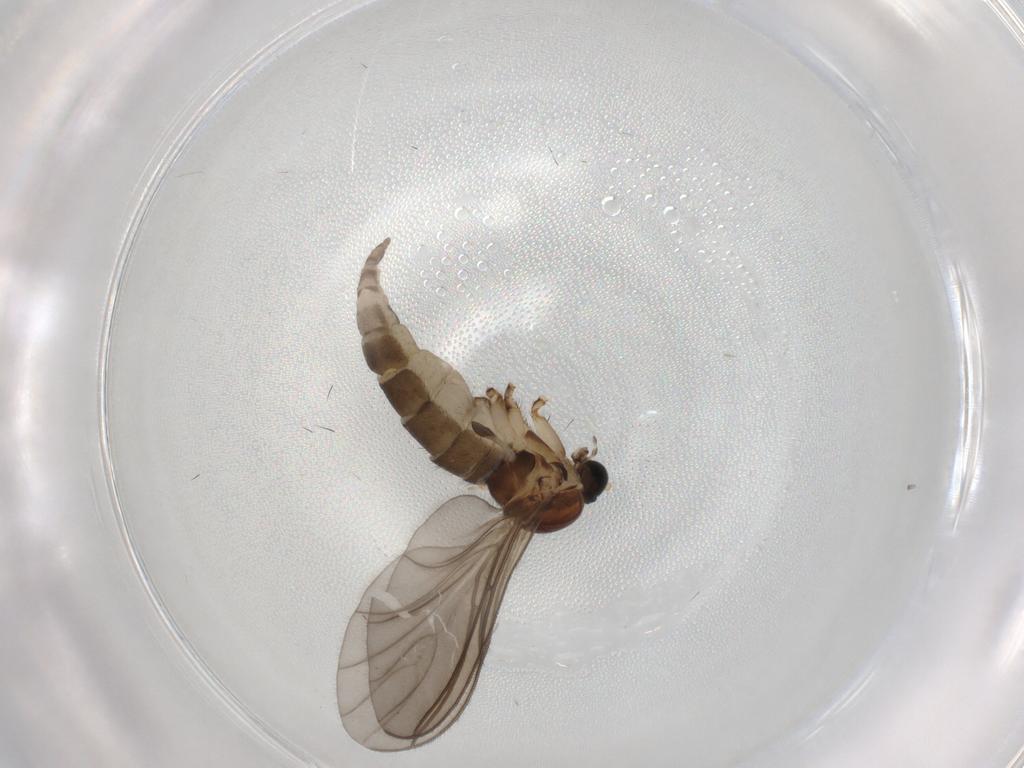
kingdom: Animalia
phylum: Arthropoda
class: Insecta
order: Diptera
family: Sciaridae
